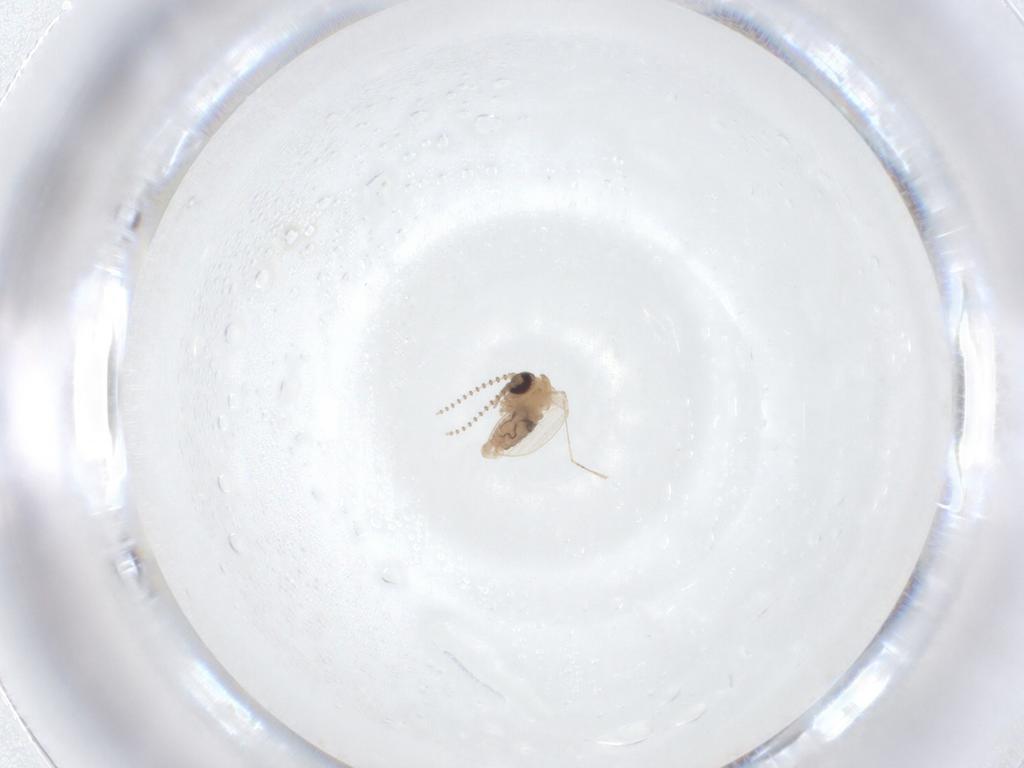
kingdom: Animalia
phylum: Arthropoda
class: Insecta
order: Diptera
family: Psychodidae
